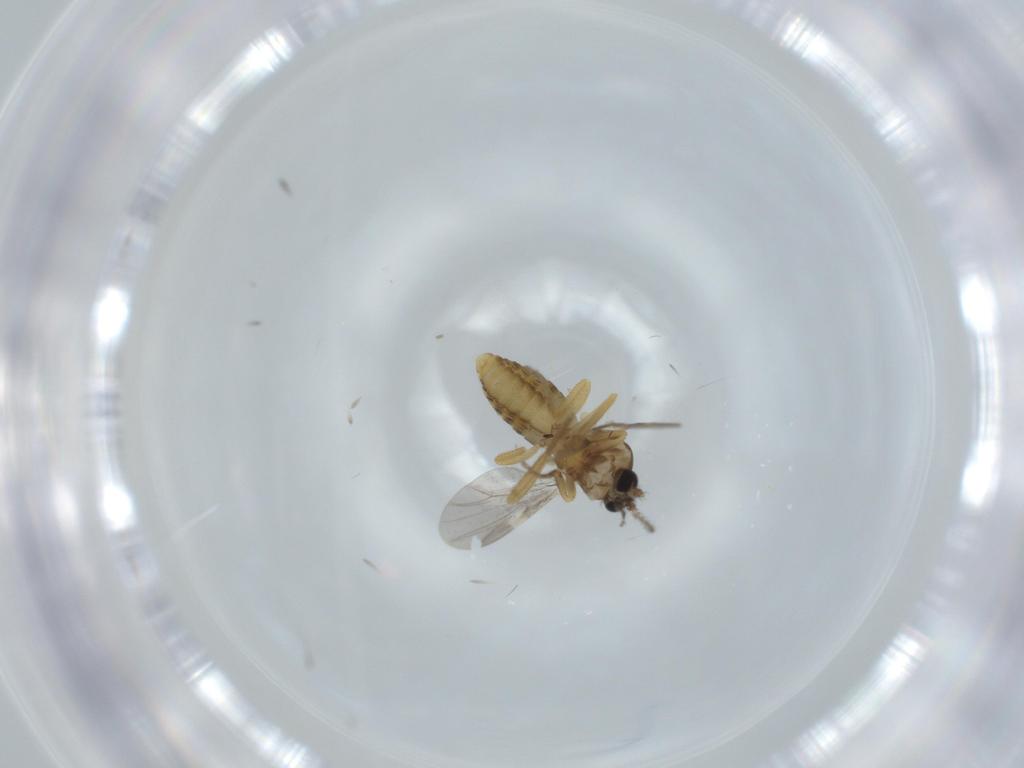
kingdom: Animalia
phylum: Arthropoda
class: Insecta
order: Diptera
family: Ceratopogonidae
